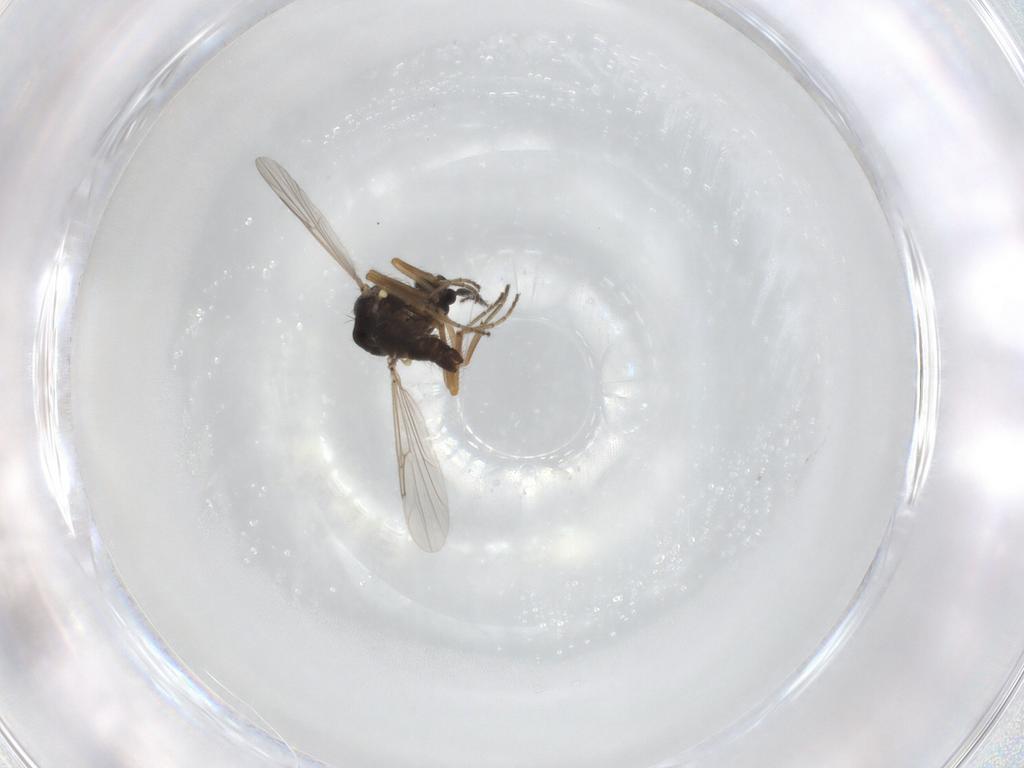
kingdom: Animalia
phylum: Arthropoda
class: Insecta
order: Diptera
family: Ceratopogonidae
